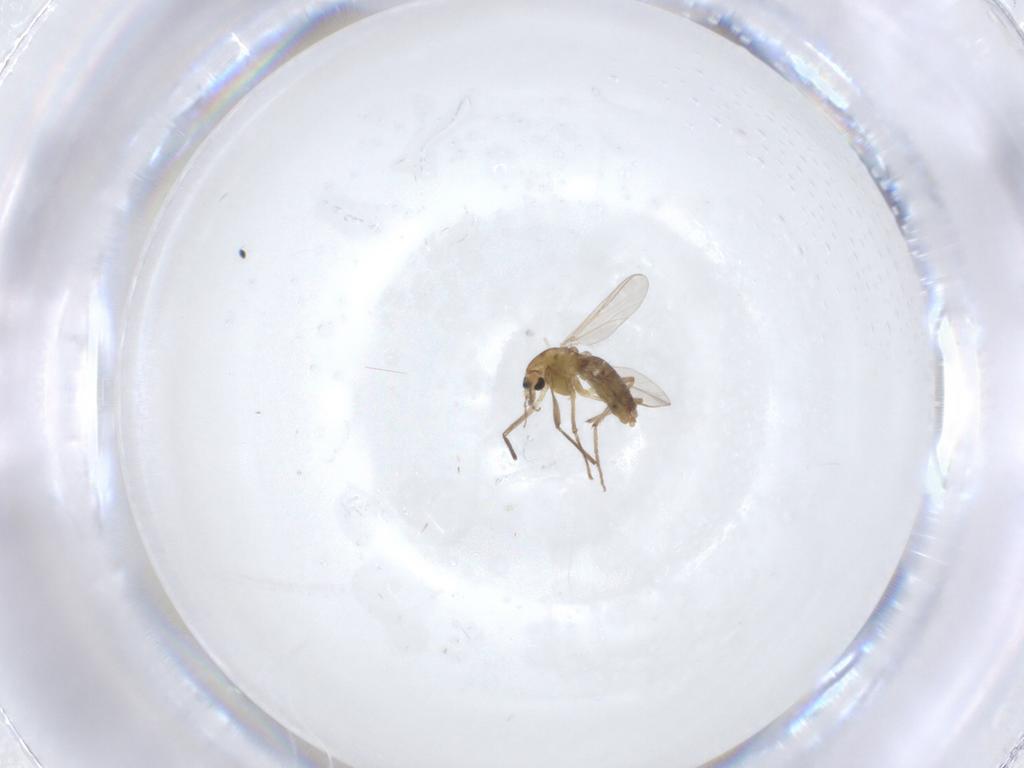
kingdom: Animalia
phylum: Arthropoda
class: Insecta
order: Diptera
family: Chironomidae
